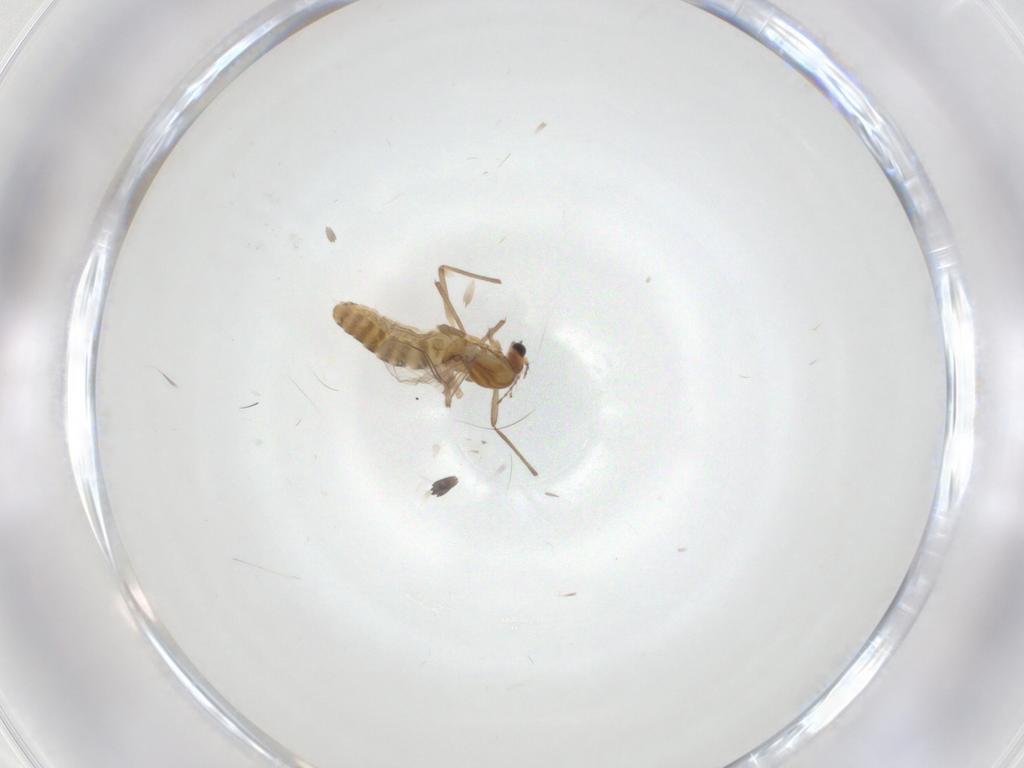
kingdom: Animalia
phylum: Arthropoda
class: Insecta
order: Diptera
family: Chironomidae
